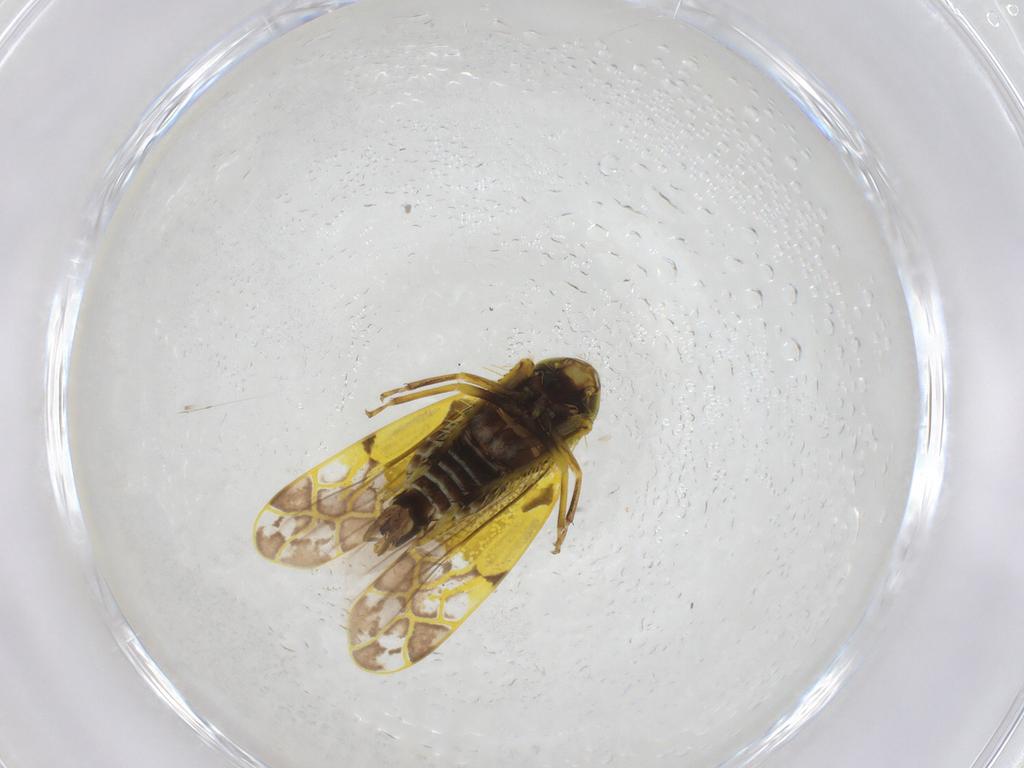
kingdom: Animalia
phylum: Arthropoda
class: Insecta
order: Hemiptera
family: Cicadellidae
